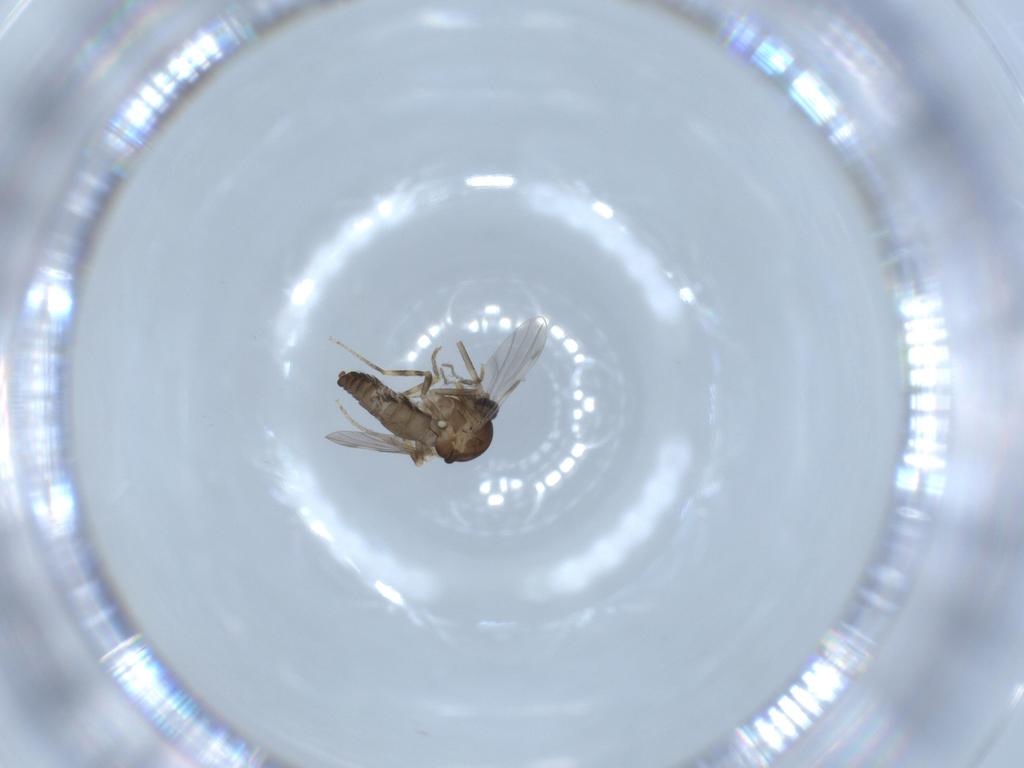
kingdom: Animalia
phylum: Arthropoda
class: Insecta
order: Diptera
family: Ceratopogonidae
